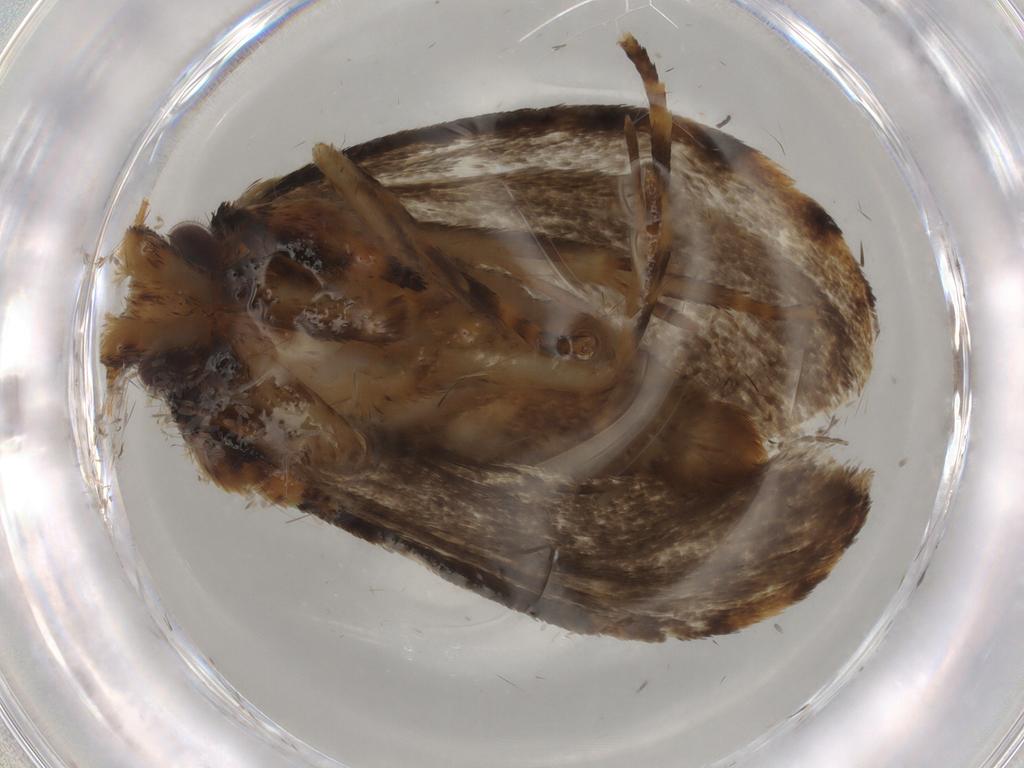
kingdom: Animalia
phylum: Arthropoda
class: Insecta
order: Lepidoptera
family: Tineidae
